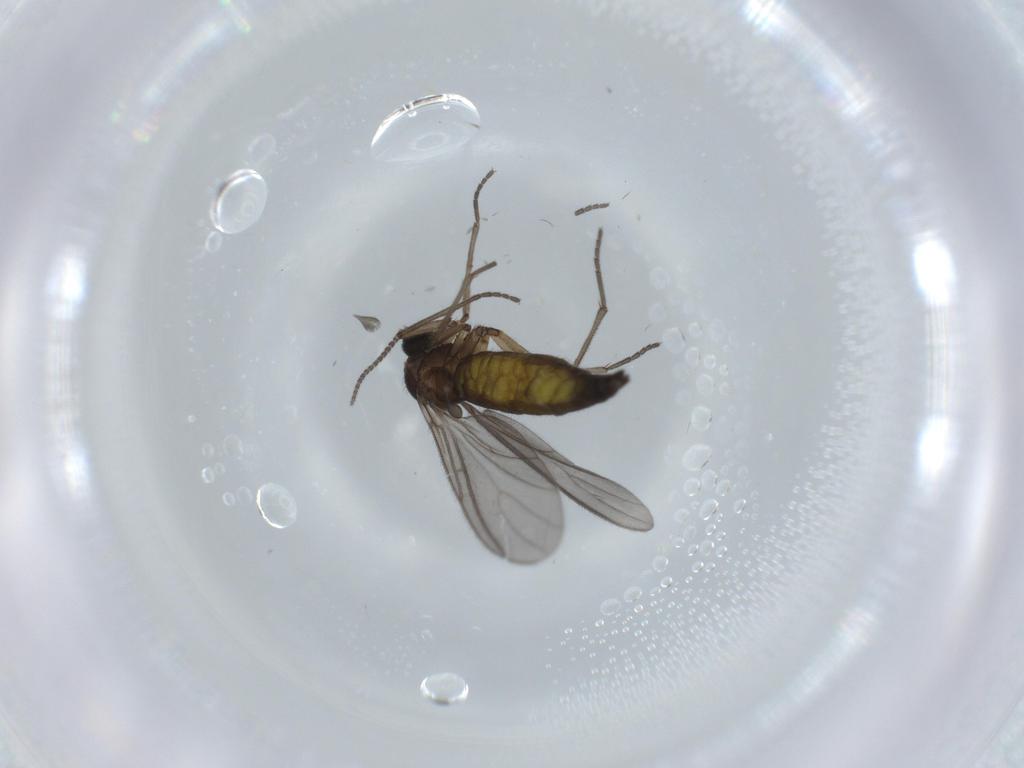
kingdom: Animalia
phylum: Arthropoda
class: Insecta
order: Diptera
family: Sciaridae
